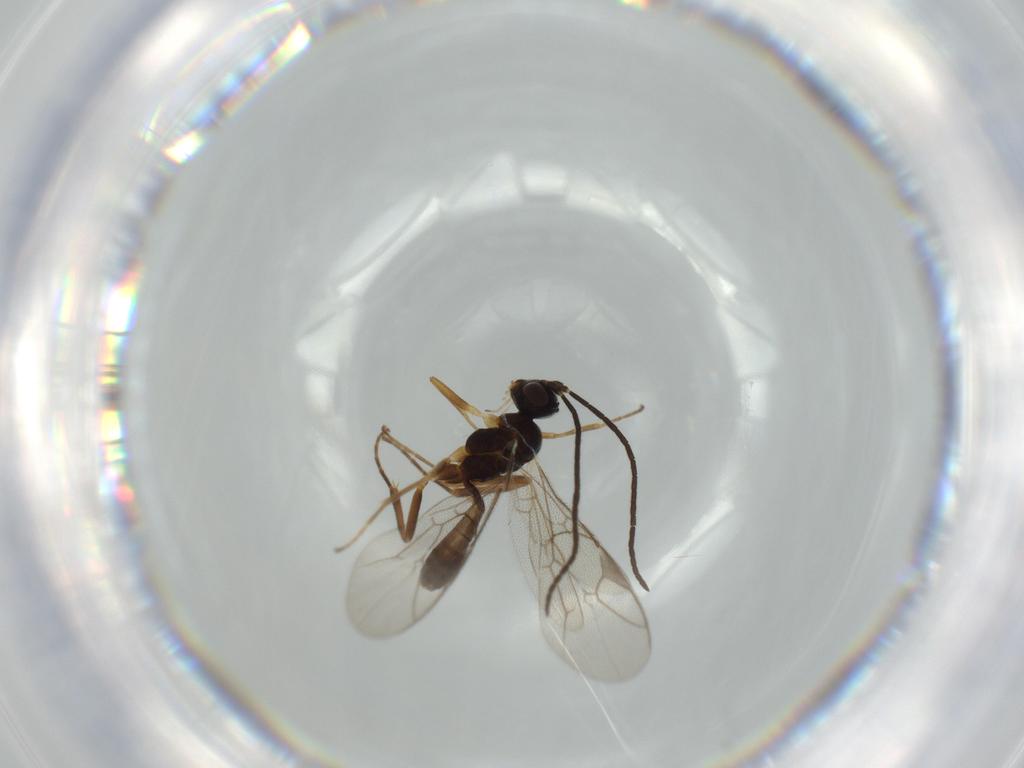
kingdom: Animalia
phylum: Arthropoda
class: Insecta
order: Hymenoptera
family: Ichneumonidae
